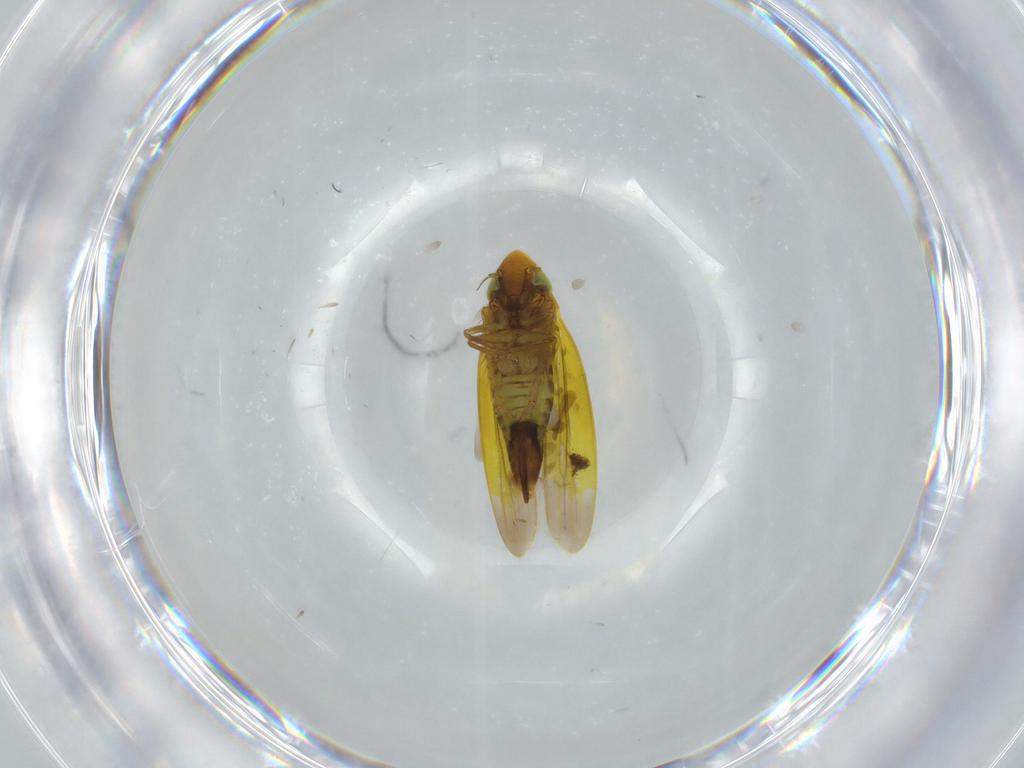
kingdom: Animalia
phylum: Arthropoda
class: Insecta
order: Hemiptera
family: Cicadellidae
